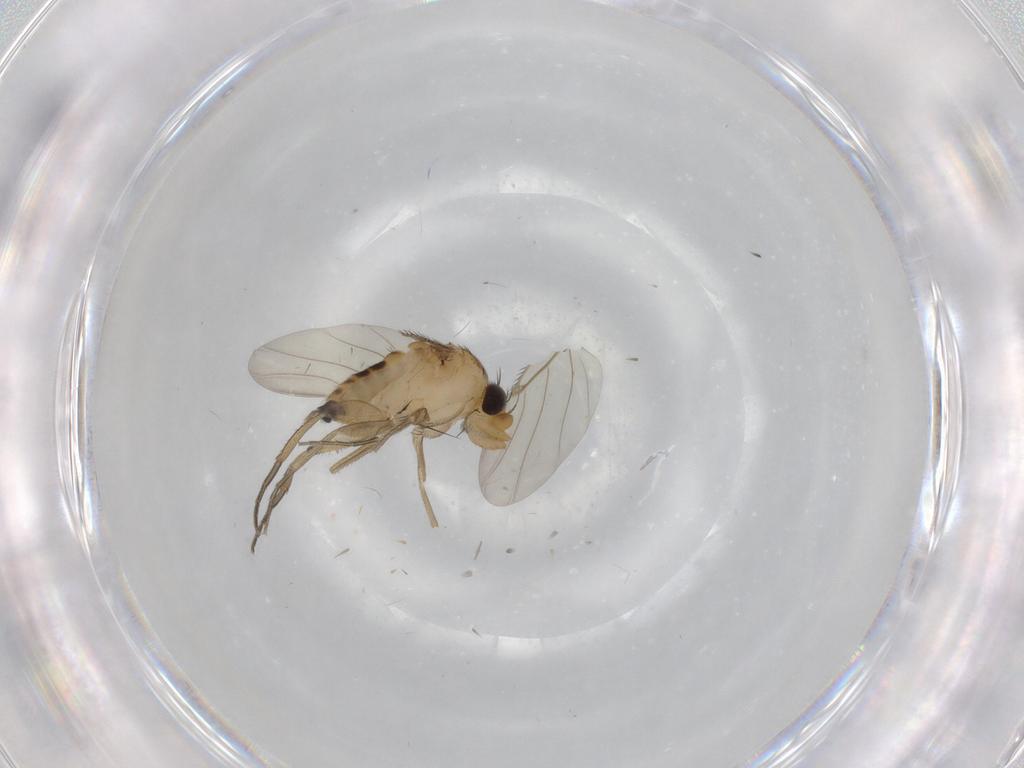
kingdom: Animalia
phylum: Arthropoda
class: Insecta
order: Diptera
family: Phoridae
